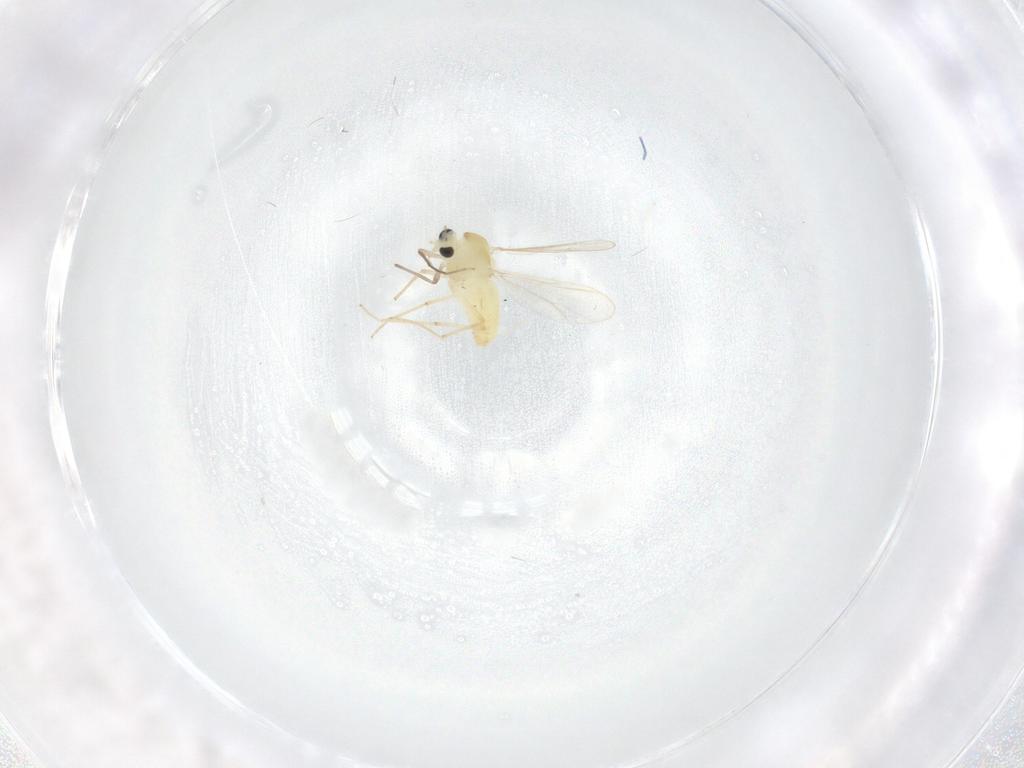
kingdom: Animalia
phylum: Arthropoda
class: Insecta
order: Diptera
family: Cecidomyiidae
